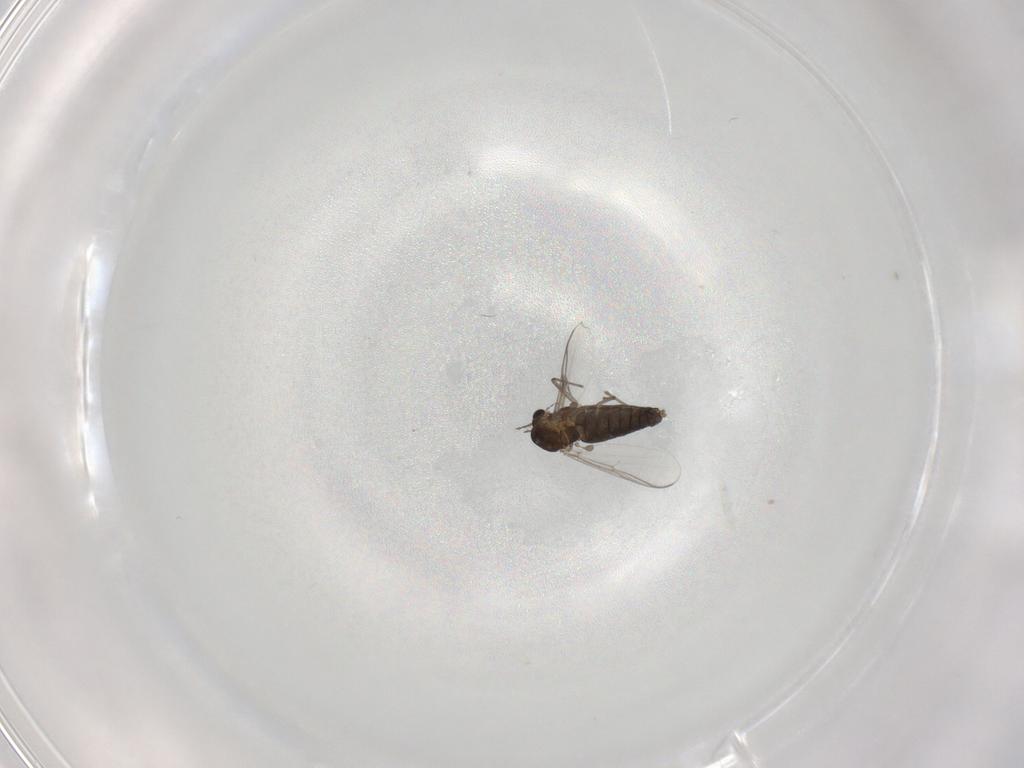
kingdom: Animalia
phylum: Arthropoda
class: Insecta
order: Diptera
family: Chironomidae
